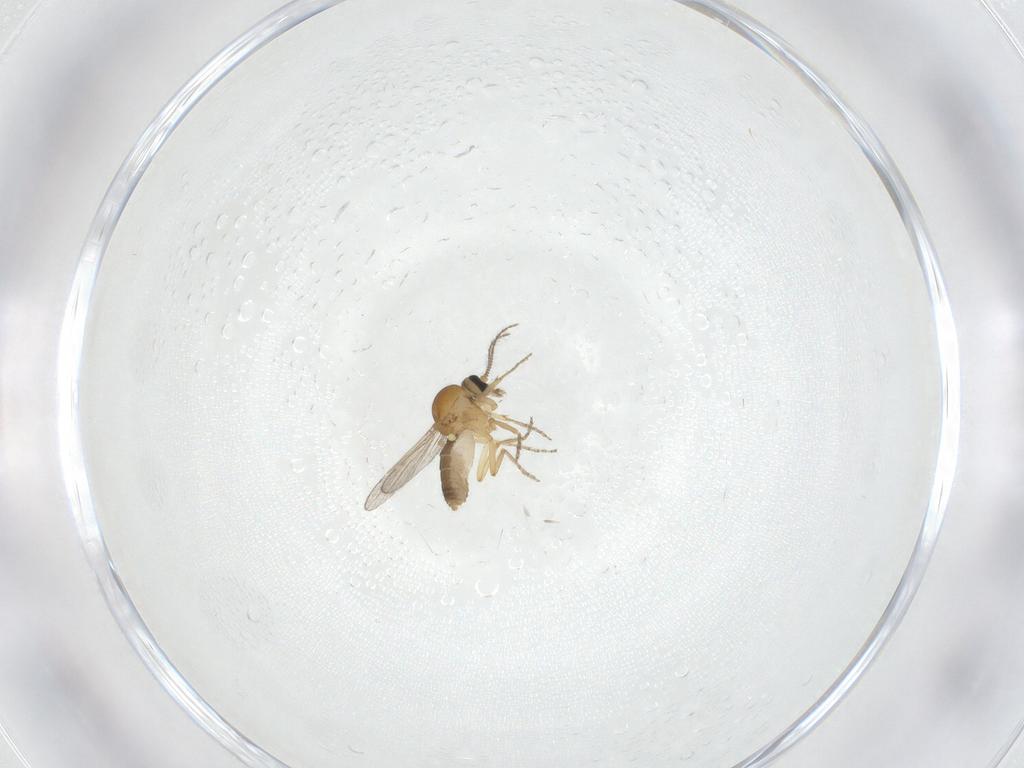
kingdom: Animalia
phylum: Arthropoda
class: Insecta
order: Diptera
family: Ceratopogonidae
